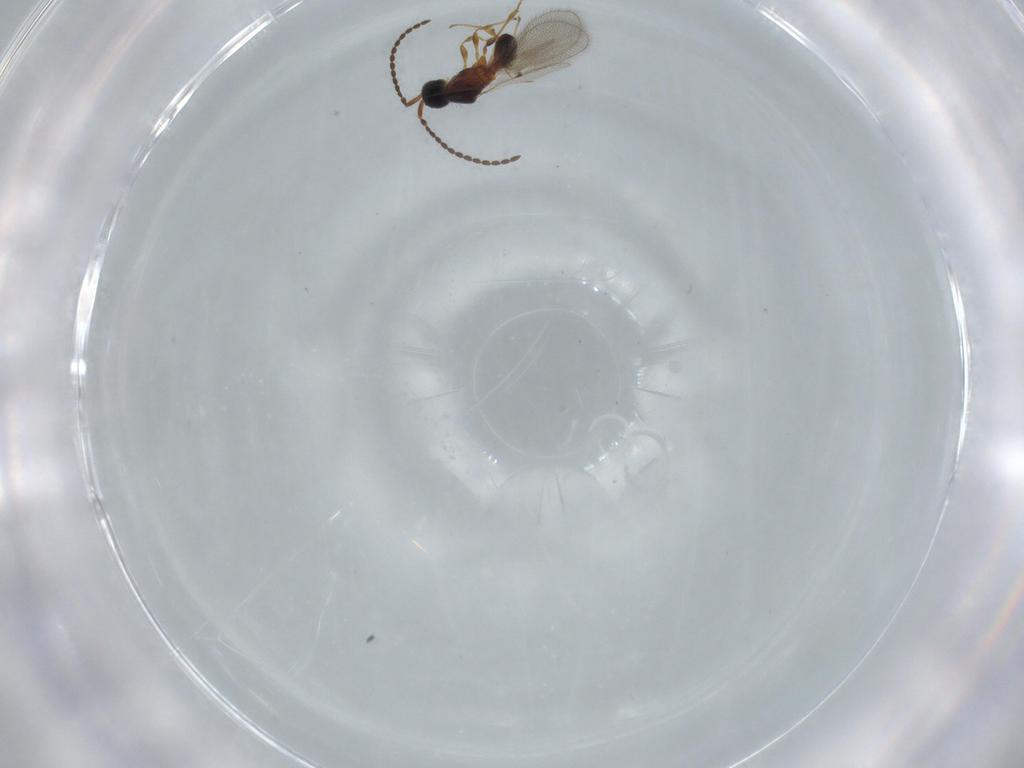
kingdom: Animalia
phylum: Arthropoda
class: Insecta
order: Hymenoptera
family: Diapriidae
